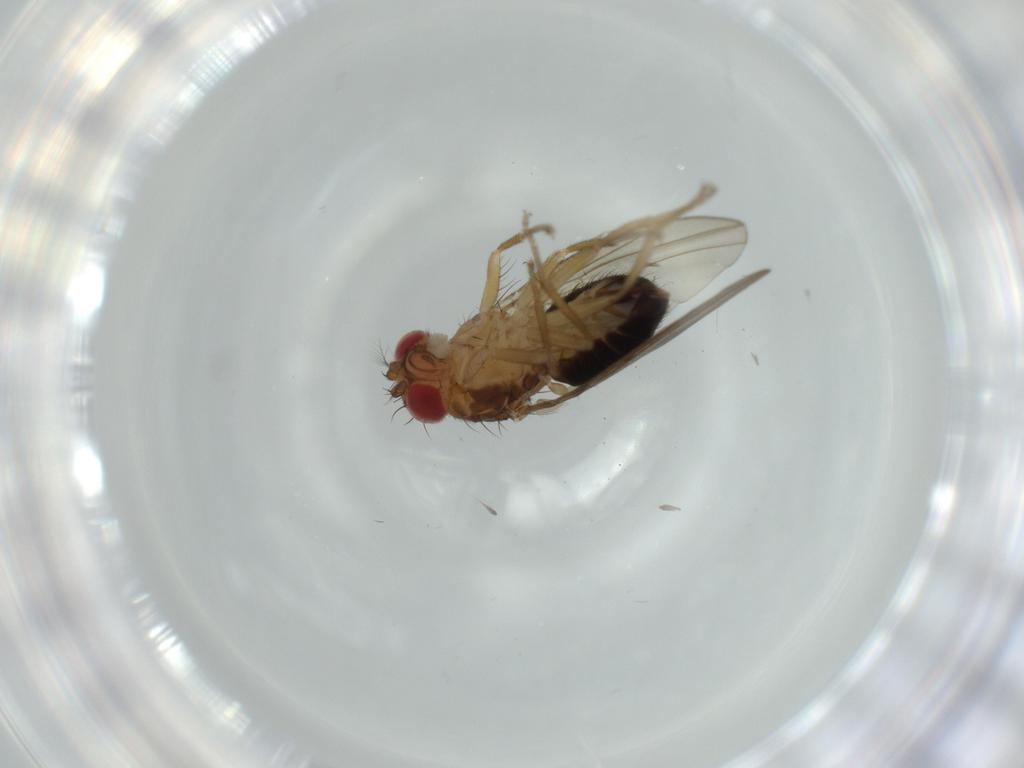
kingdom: Animalia
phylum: Arthropoda
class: Insecta
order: Diptera
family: Drosophilidae
